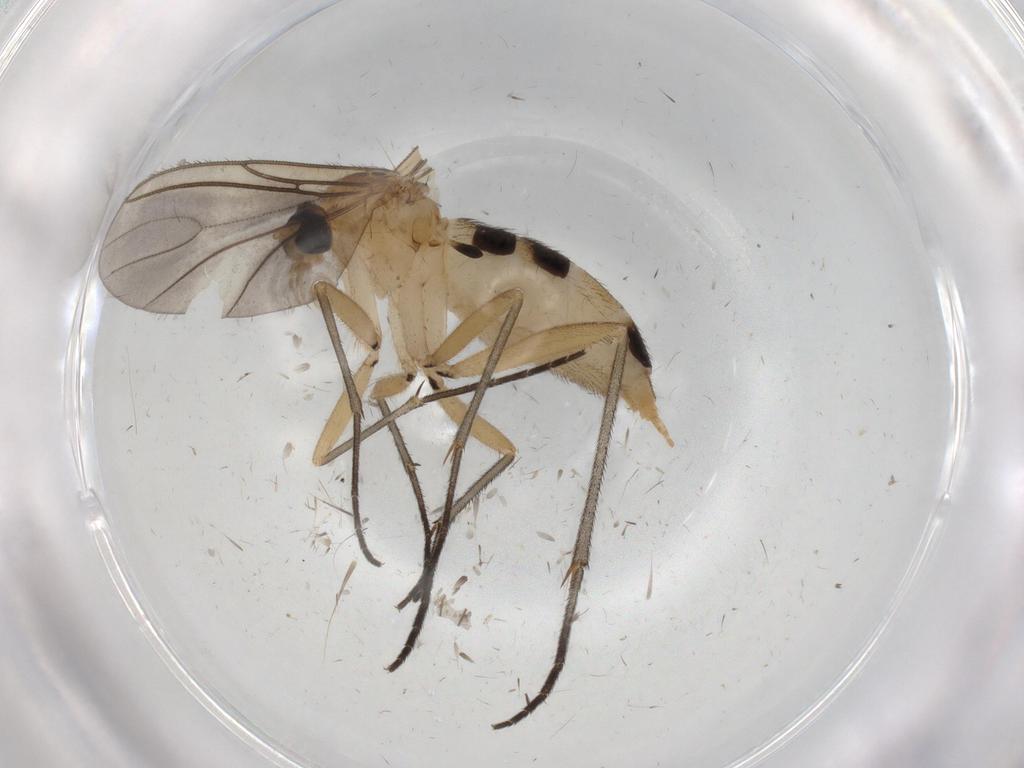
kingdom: Animalia
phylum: Arthropoda
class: Insecta
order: Diptera
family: Sciaridae
